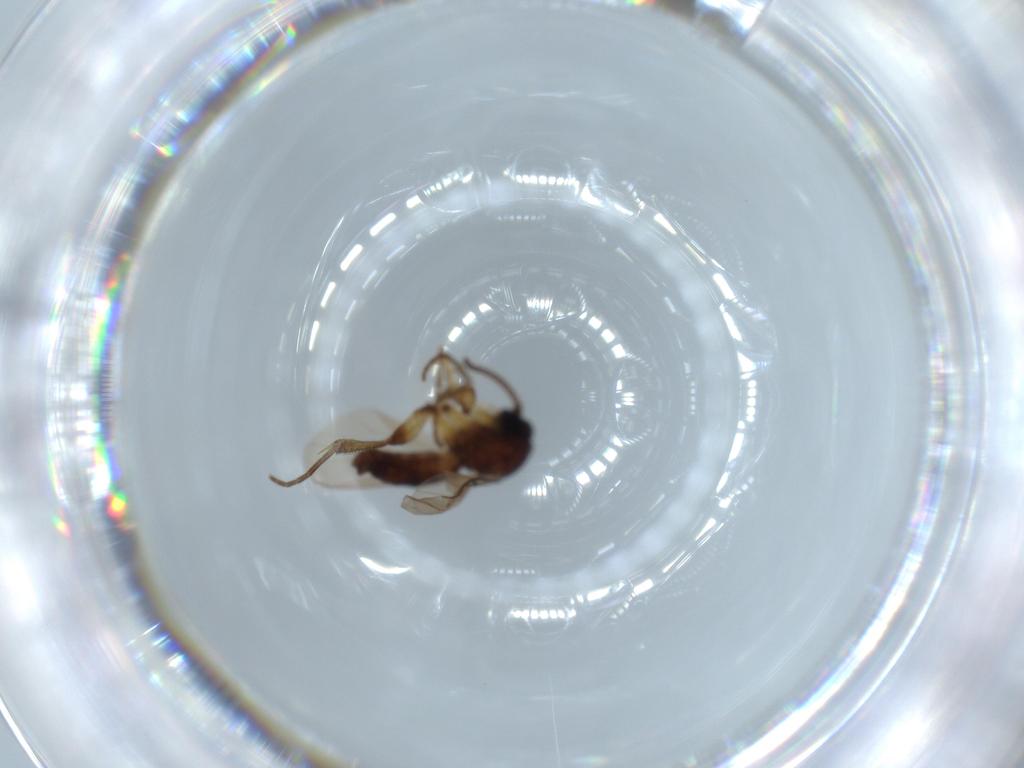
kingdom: Animalia
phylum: Arthropoda
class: Insecta
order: Diptera
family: Mycetophilidae
